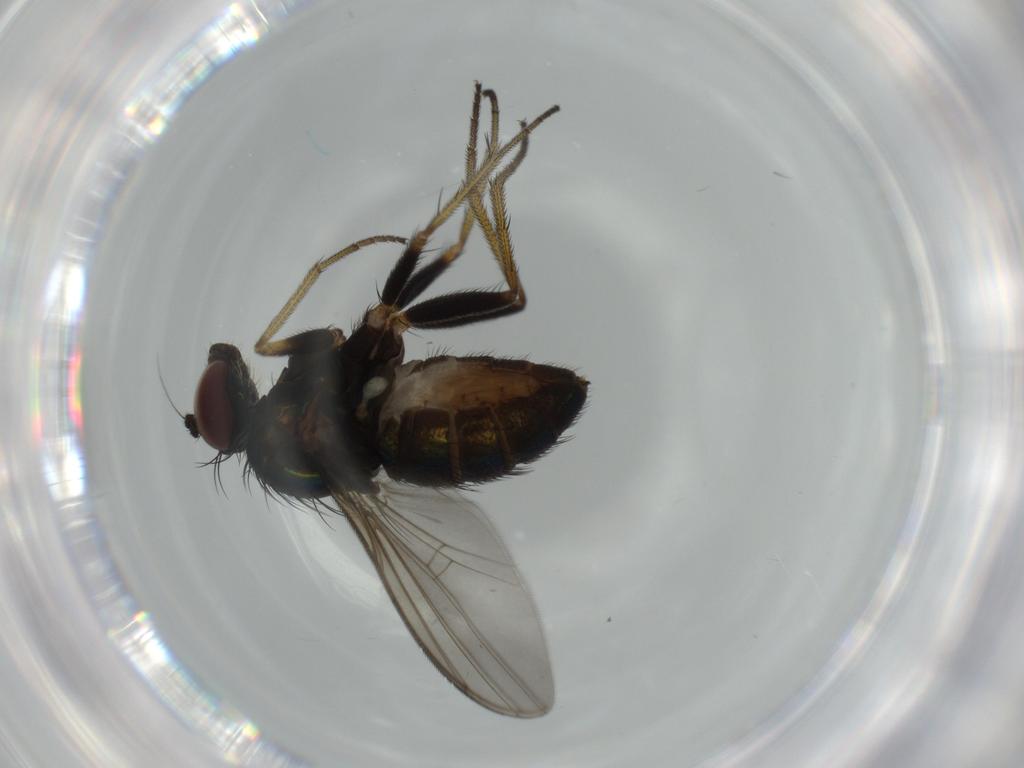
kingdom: Animalia
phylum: Arthropoda
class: Insecta
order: Diptera
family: Dolichopodidae
